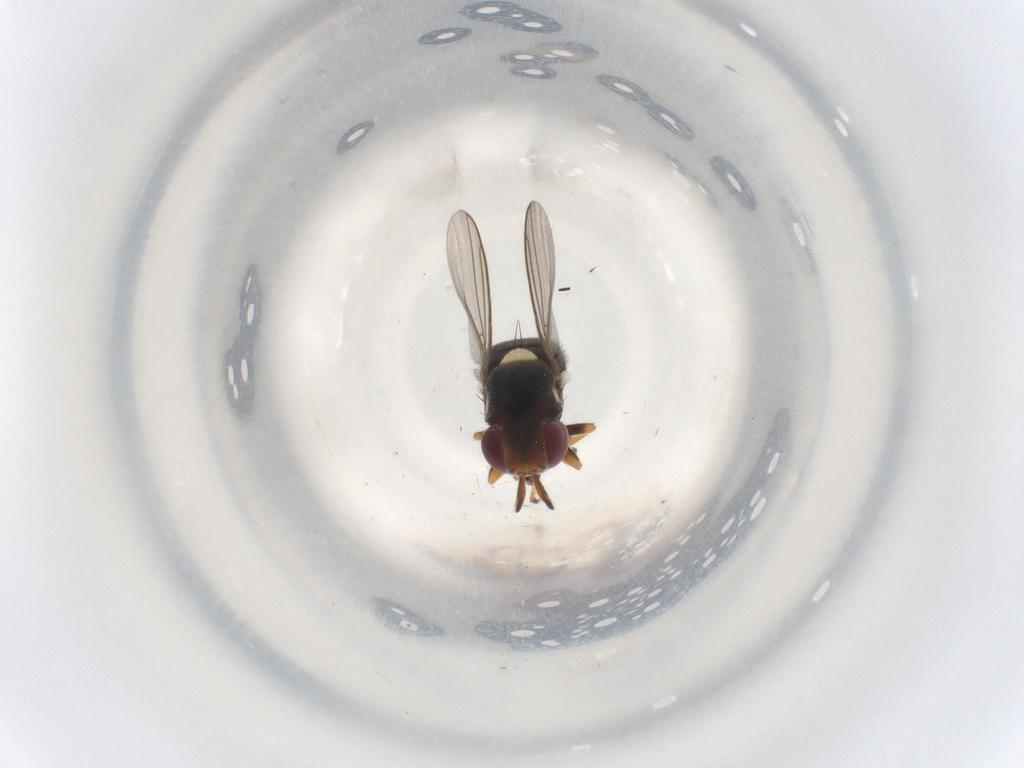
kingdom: Animalia
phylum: Arthropoda
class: Insecta
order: Diptera
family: Chloropidae
